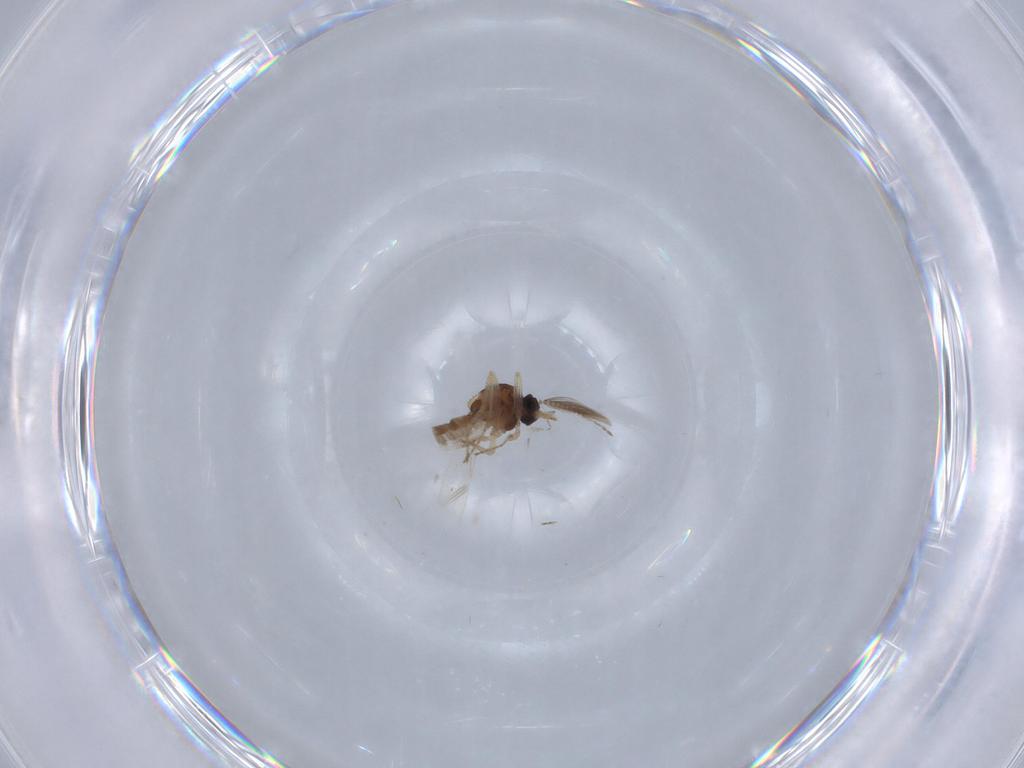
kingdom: Animalia
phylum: Arthropoda
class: Insecta
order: Diptera
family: Ceratopogonidae
